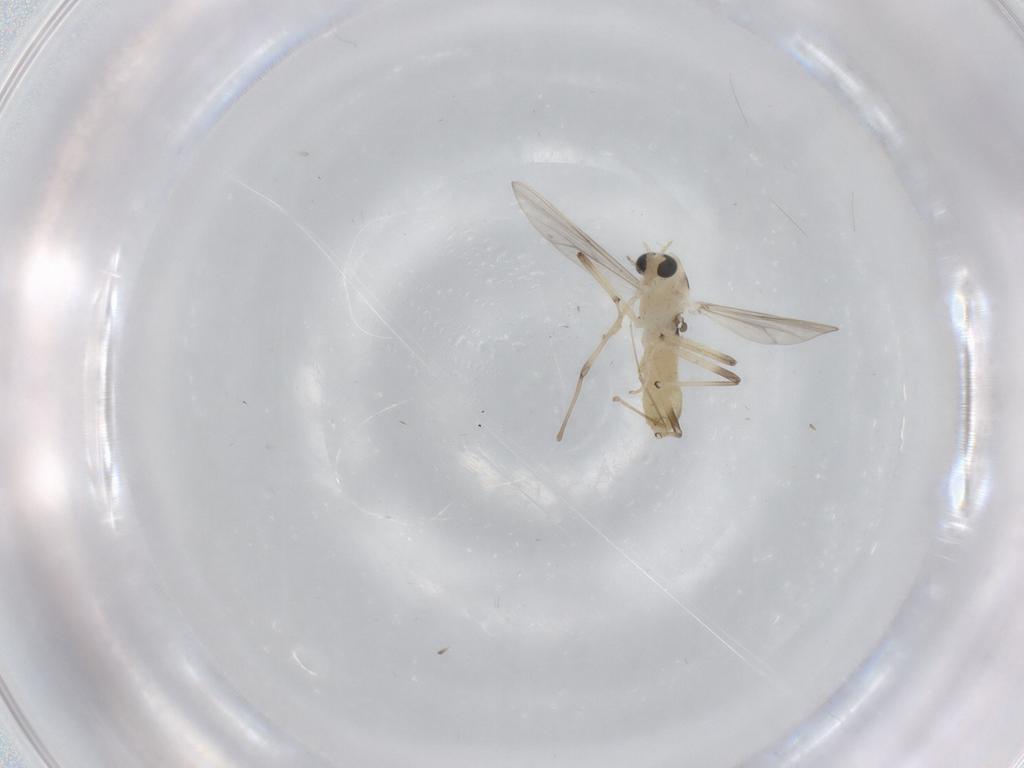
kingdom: Animalia
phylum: Arthropoda
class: Insecta
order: Diptera
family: Chironomidae
